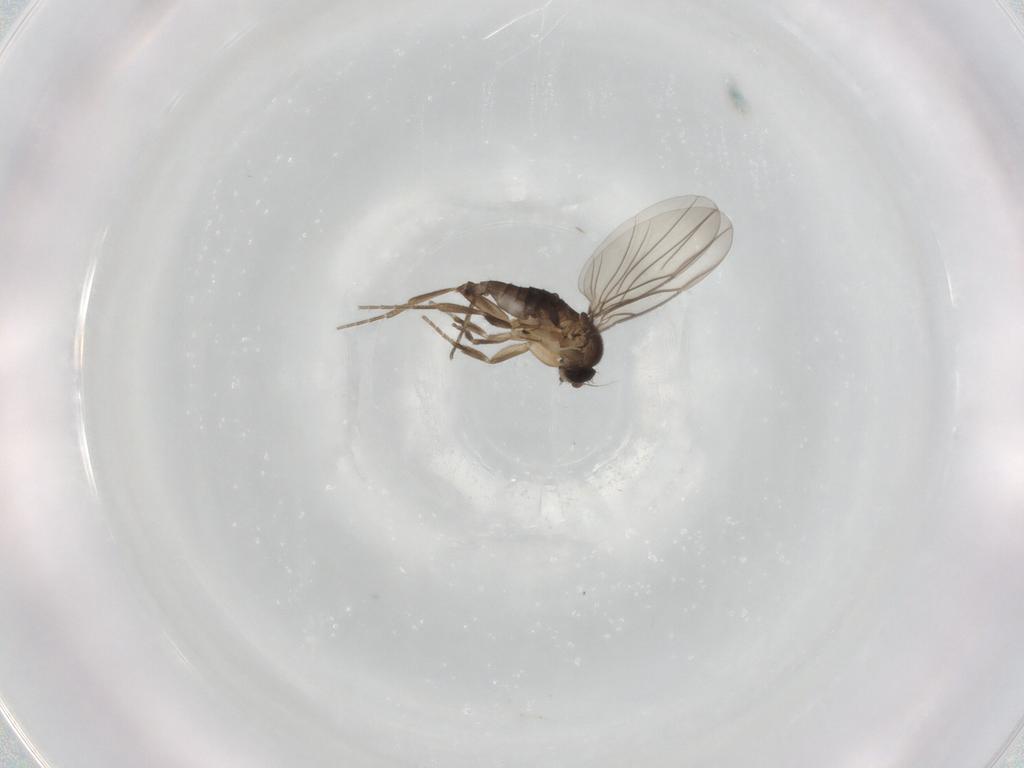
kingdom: Animalia
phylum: Arthropoda
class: Insecta
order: Diptera
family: Phoridae
